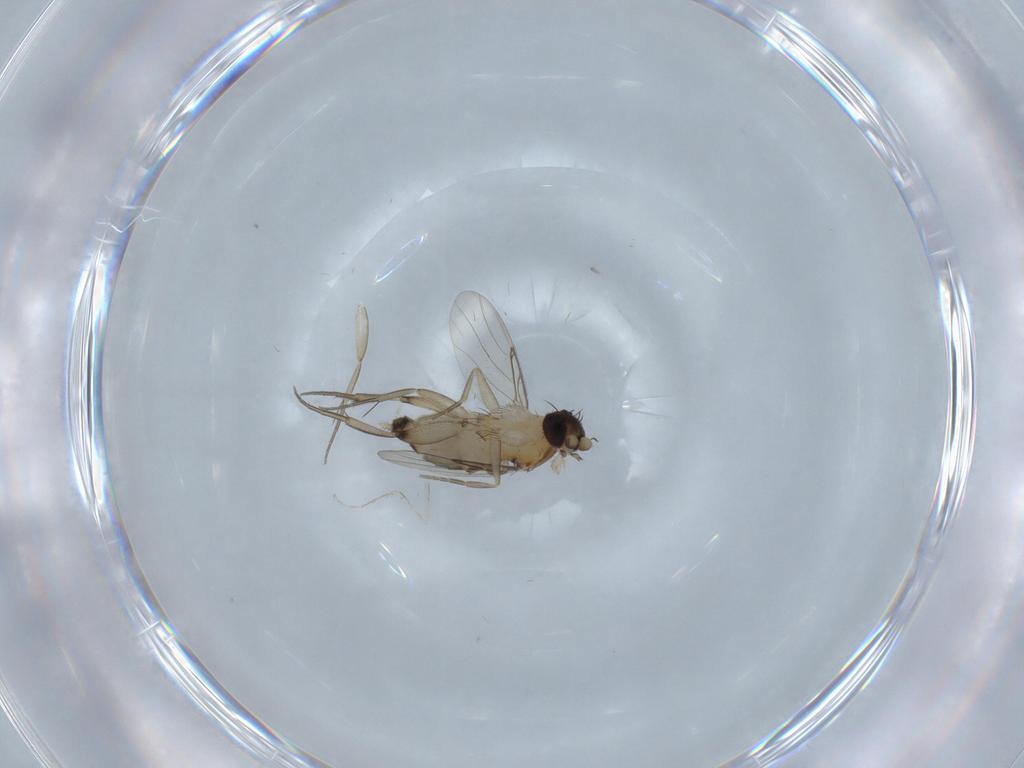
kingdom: Animalia
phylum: Arthropoda
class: Insecta
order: Diptera
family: Phoridae
